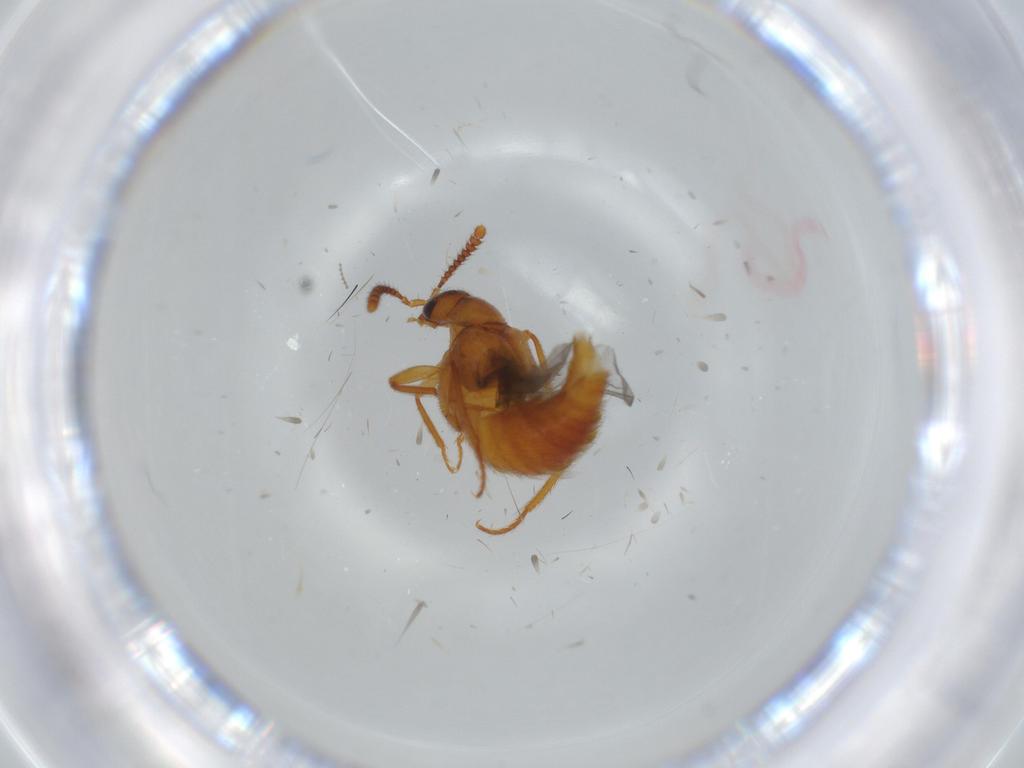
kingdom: Animalia
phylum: Arthropoda
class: Insecta
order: Coleoptera
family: Staphylinidae
